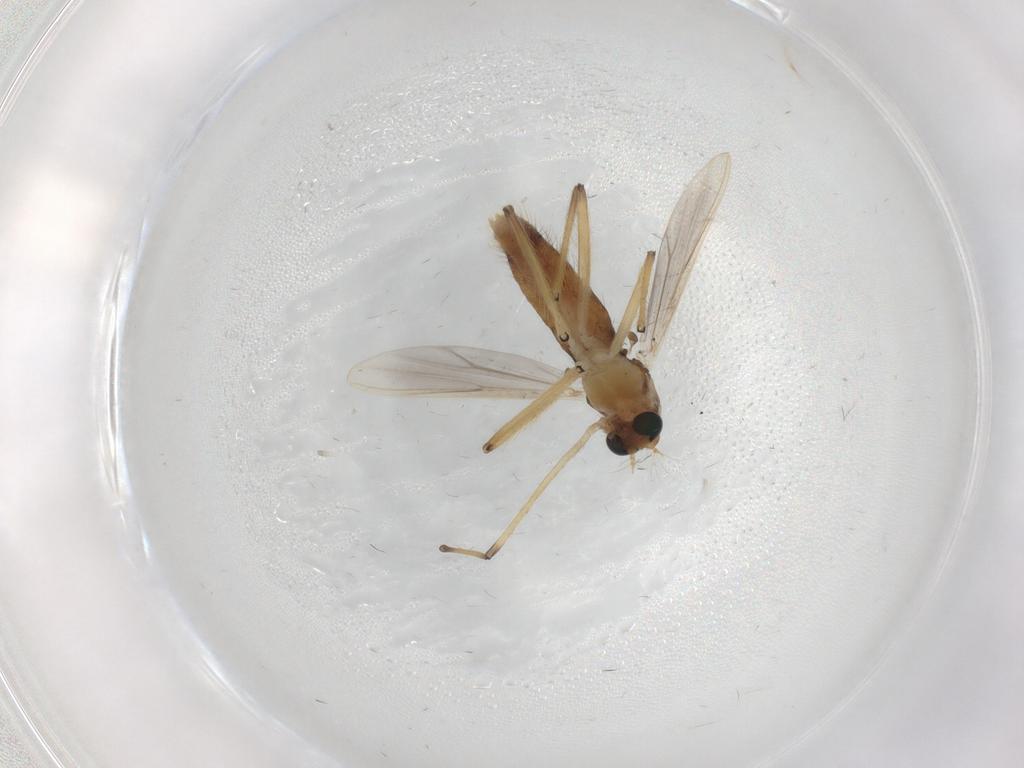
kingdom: Animalia
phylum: Arthropoda
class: Insecta
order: Diptera
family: Chironomidae
